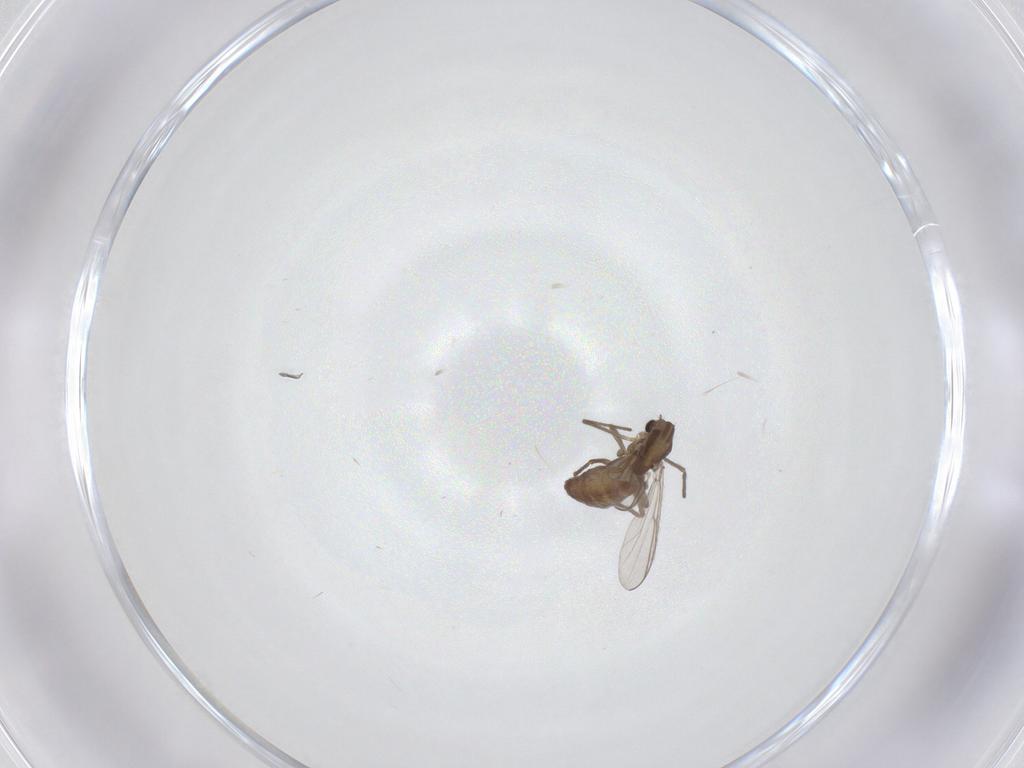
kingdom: Animalia
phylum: Arthropoda
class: Insecta
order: Diptera
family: Chironomidae
